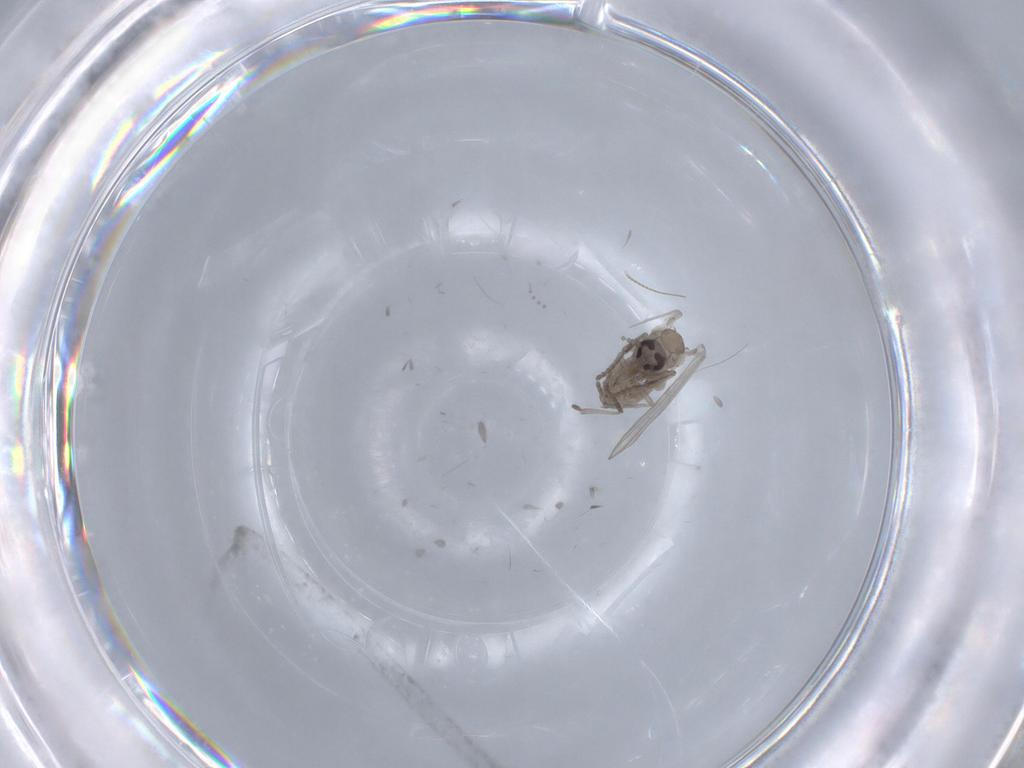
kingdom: Animalia
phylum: Arthropoda
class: Insecta
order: Diptera
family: Psychodidae
